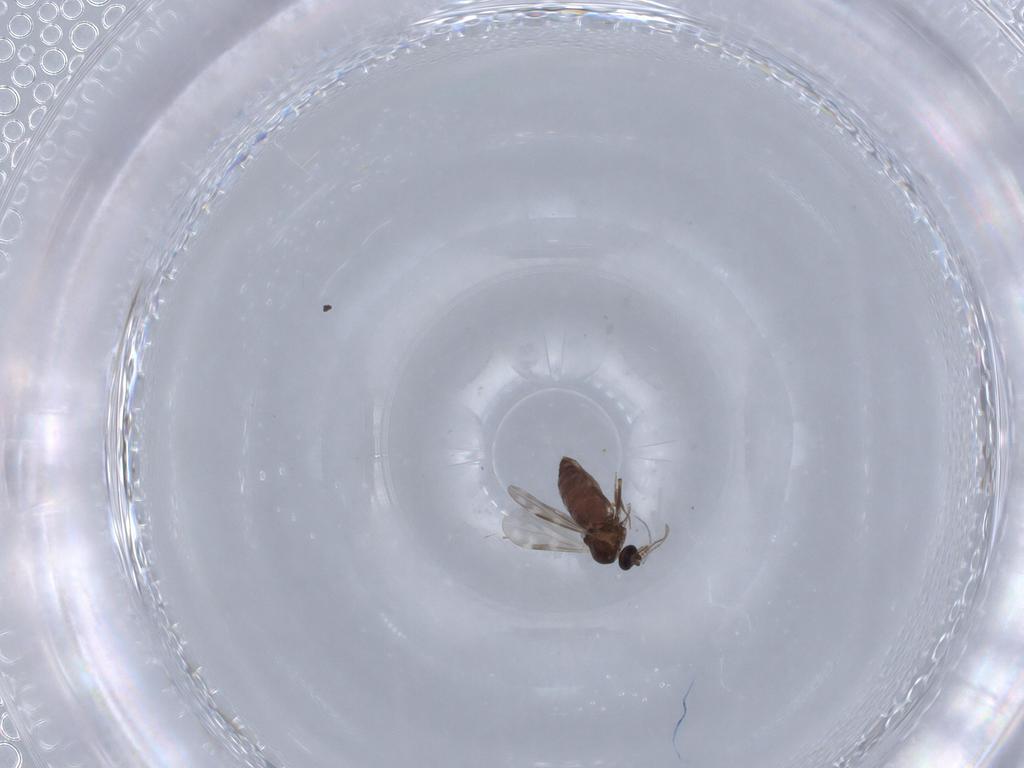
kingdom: Animalia
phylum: Arthropoda
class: Insecta
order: Diptera
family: Ceratopogonidae
